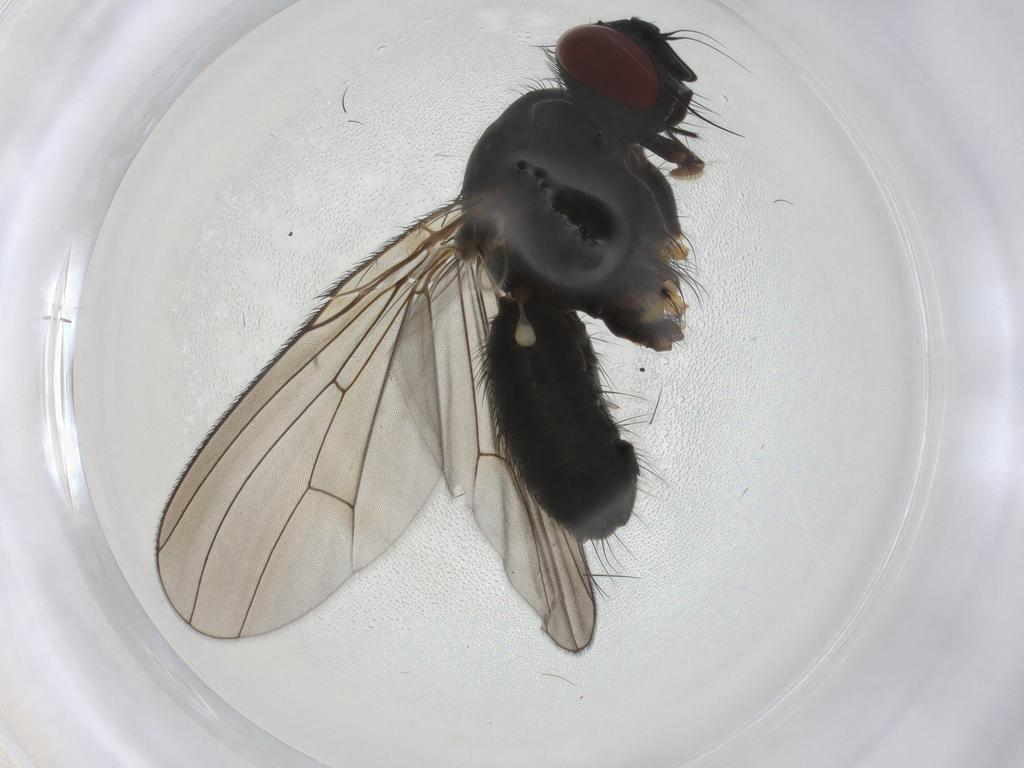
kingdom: Animalia
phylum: Arthropoda
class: Insecta
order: Diptera
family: Muscidae
